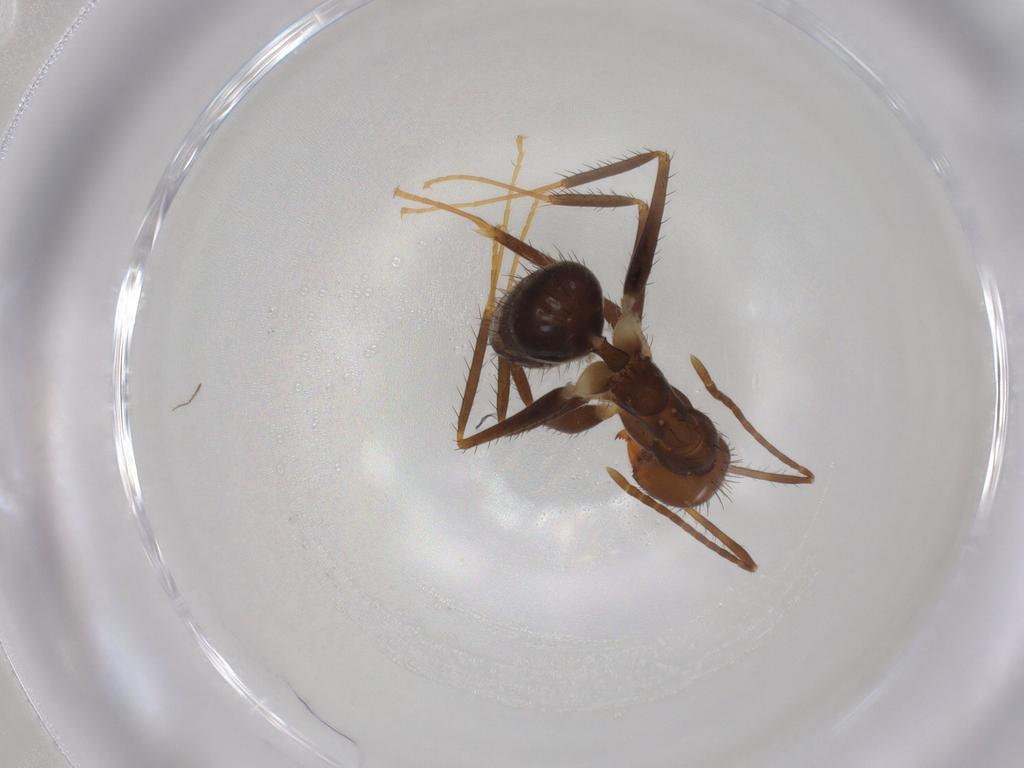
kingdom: Animalia
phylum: Arthropoda
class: Insecta
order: Hymenoptera
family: Formicidae
